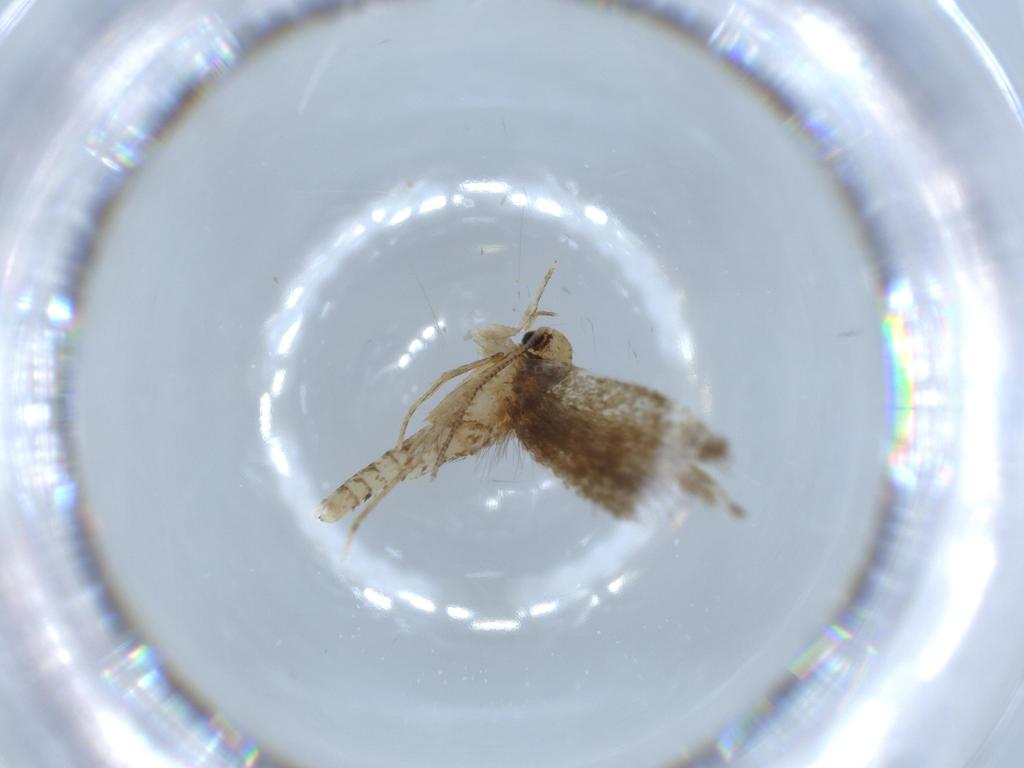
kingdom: Animalia
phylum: Arthropoda
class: Insecta
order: Lepidoptera
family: Tineidae
